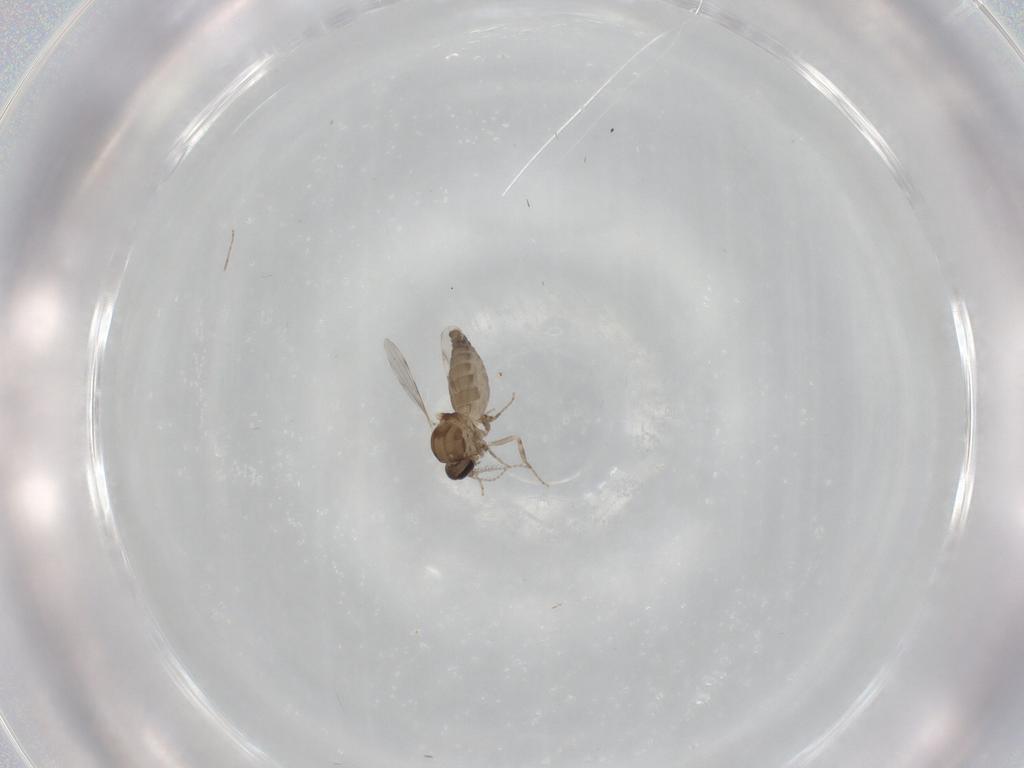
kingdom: Animalia
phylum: Arthropoda
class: Insecta
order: Diptera
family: Ceratopogonidae
